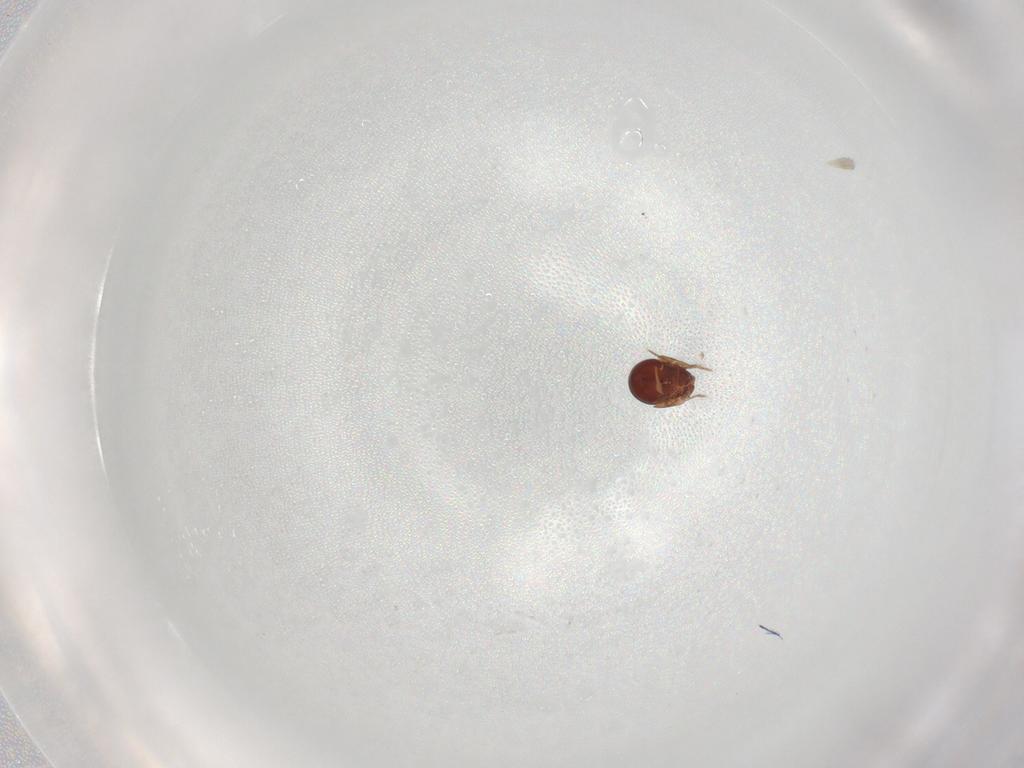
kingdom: Animalia
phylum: Arthropoda
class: Arachnida
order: Sarcoptiformes
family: Galumnidae
